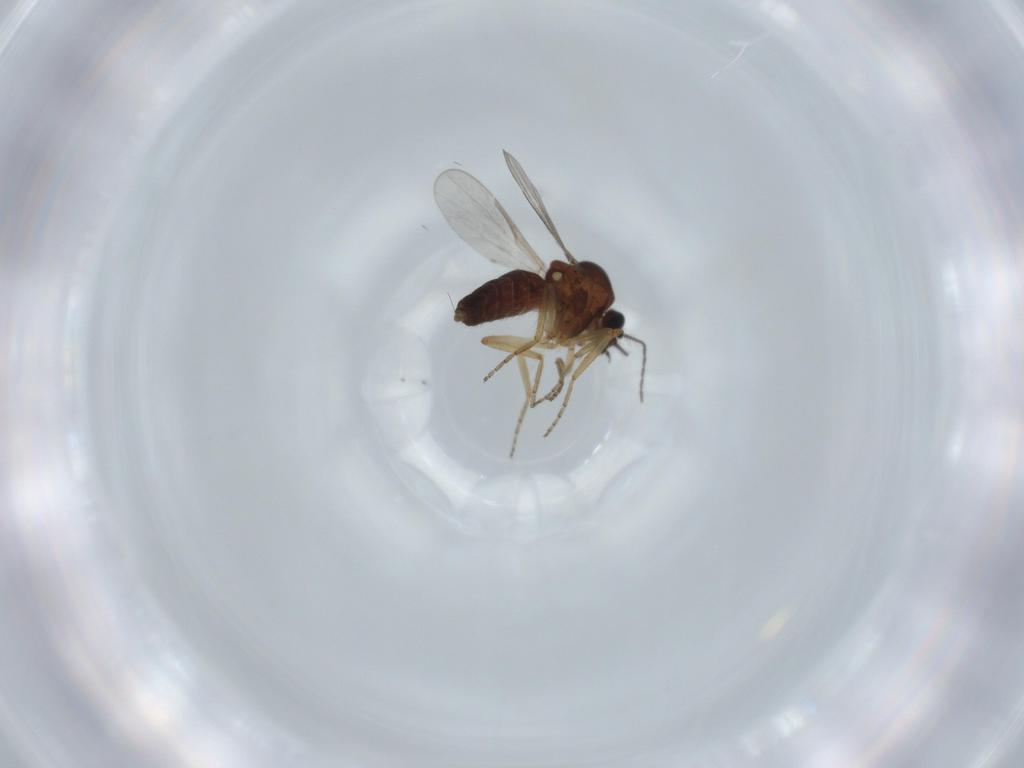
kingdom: Animalia
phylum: Arthropoda
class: Insecta
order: Diptera
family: Ceratopogonidae
